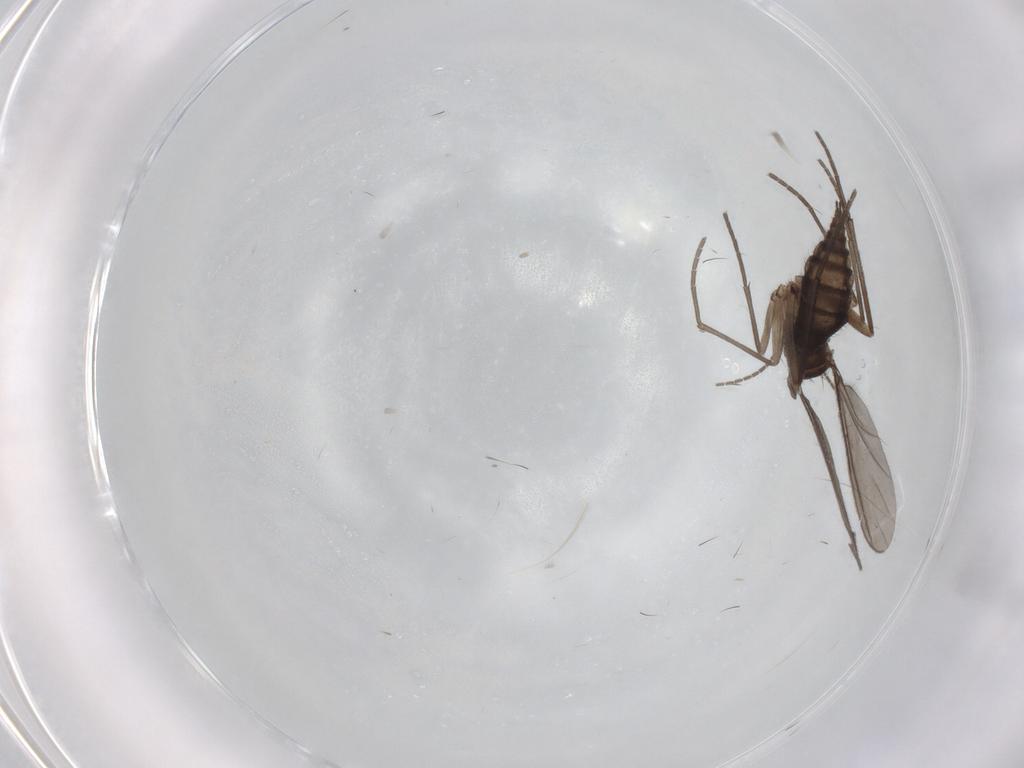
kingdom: Animalia
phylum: Arthropoda
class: Insecta
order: Diptera
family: Sciaridae
